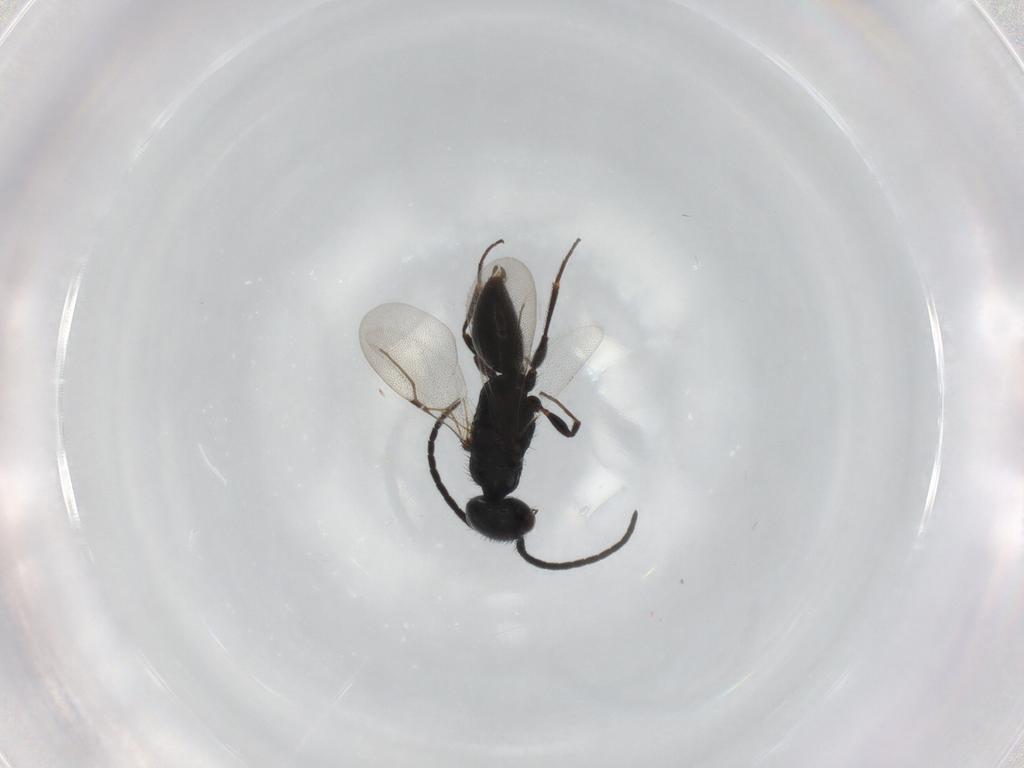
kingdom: Animalia
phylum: Arthropoda
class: Insecta
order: Hymenoptera
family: Bethylidae
